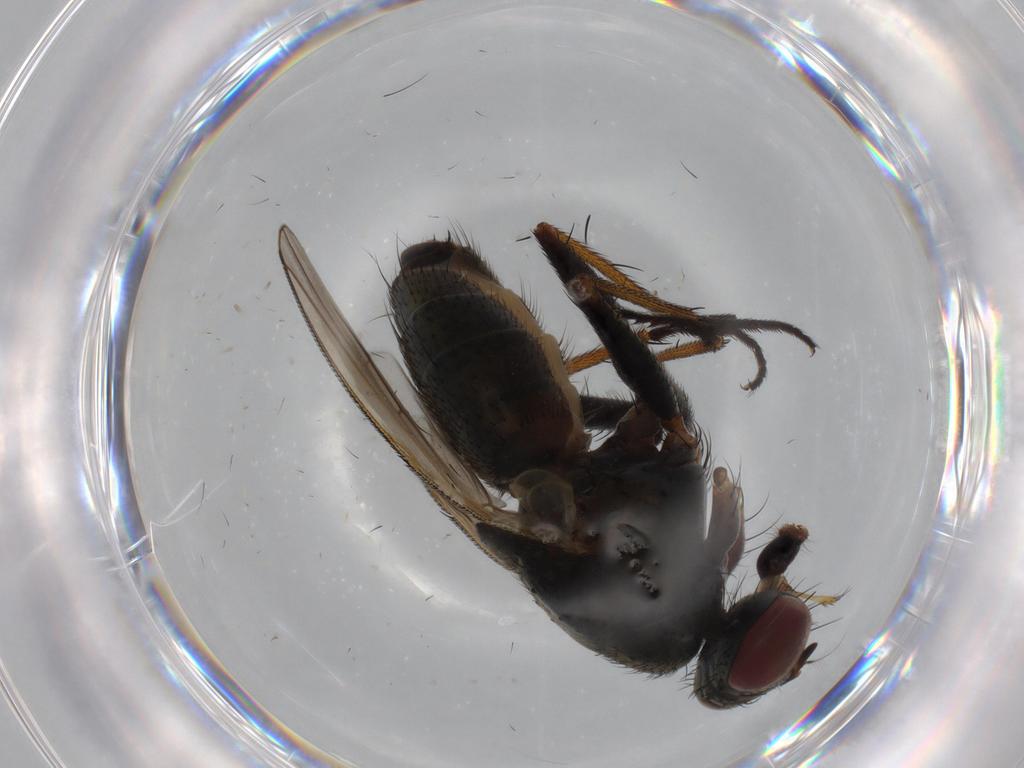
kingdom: Animalia
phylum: Arthropoda
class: Insecta
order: Diptera
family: Muscidae
